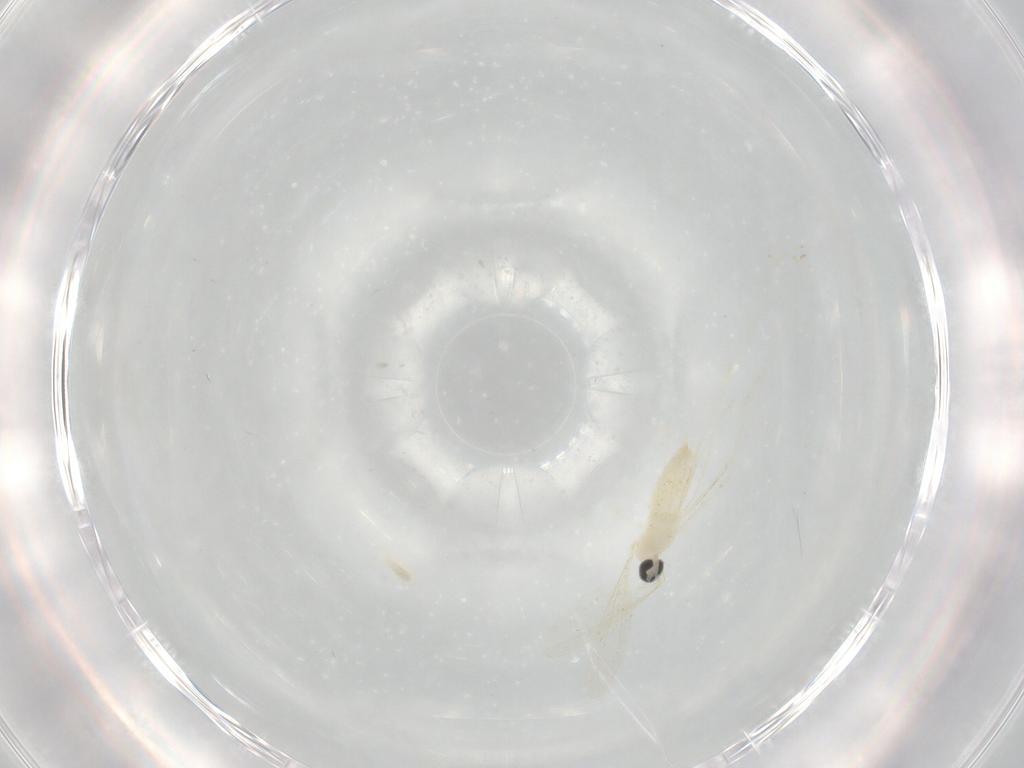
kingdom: Animalia
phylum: Arthropoda
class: Insecta
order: Diptera
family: Cecidomyiidae
